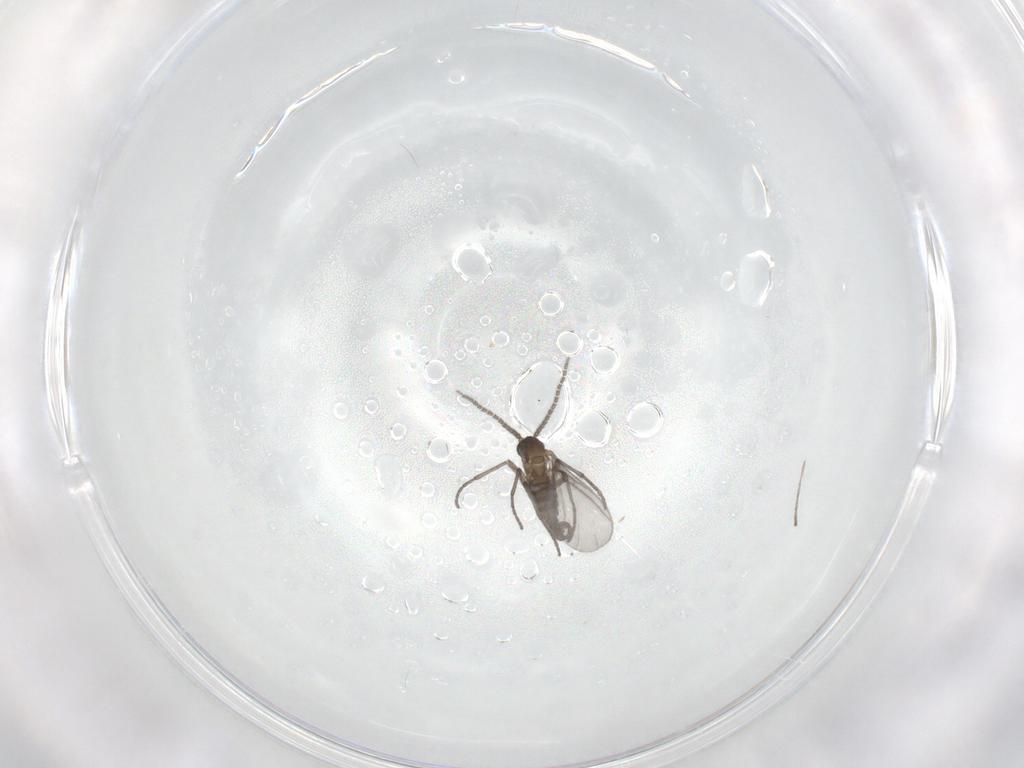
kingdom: Animalia
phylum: Arthropoda
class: Insecta
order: Diptera
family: Sciaridae
